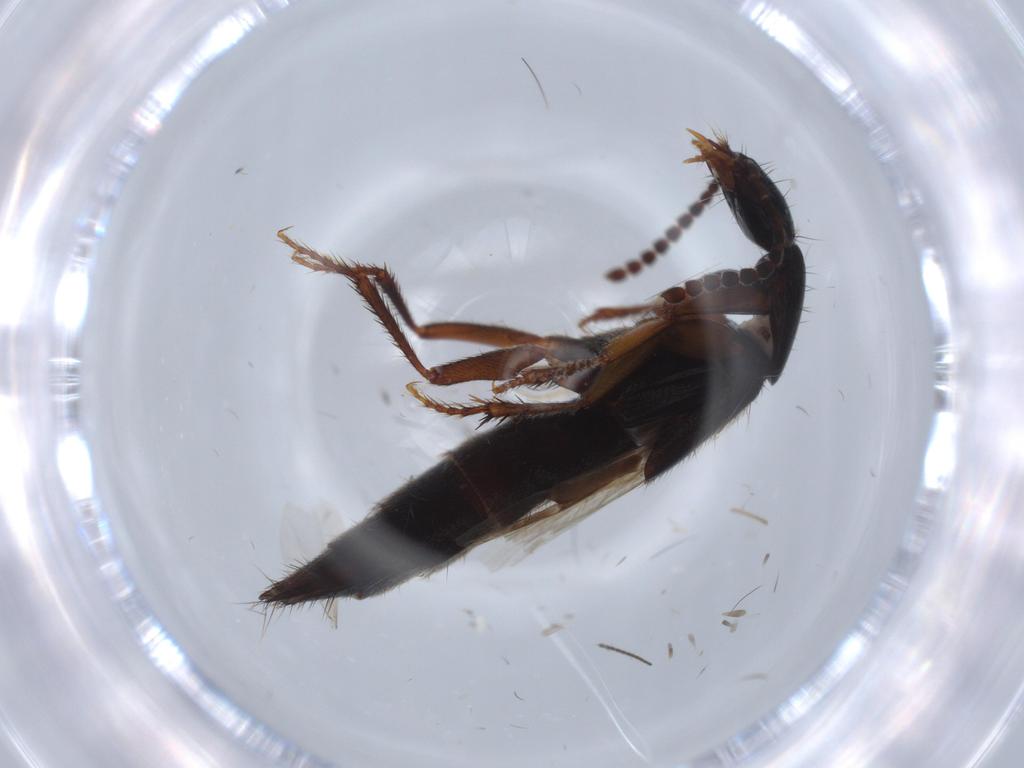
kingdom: Animalia
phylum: Arthropoda
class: Insecta
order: Coleoptera
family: Staphylinidae
